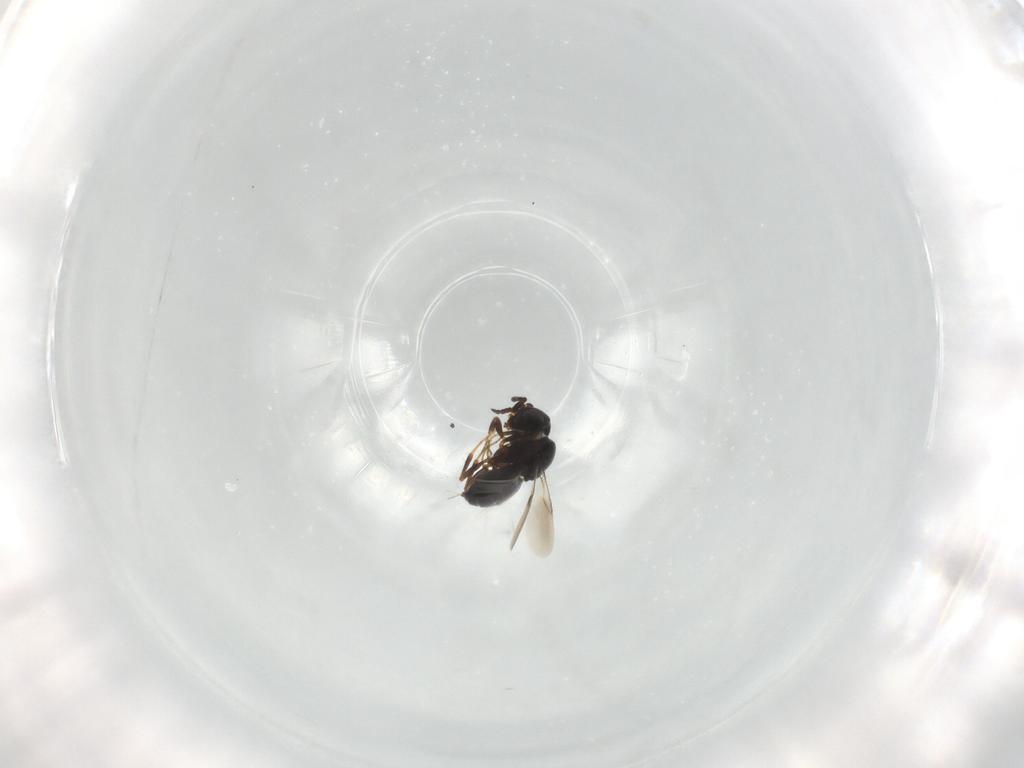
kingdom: Animalia
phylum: Arthropoda
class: Insecta
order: Hymenoptera
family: Scelionidae
